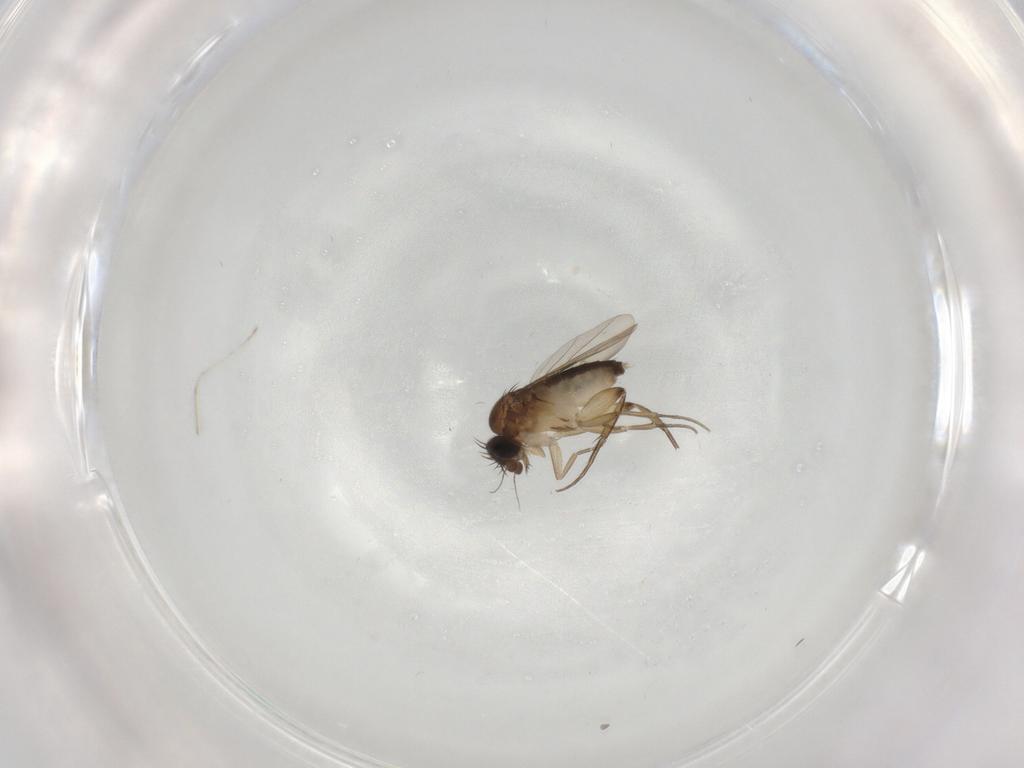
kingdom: Animalia
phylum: Arthropoda
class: Insecta
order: Diptera
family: Phoridae
